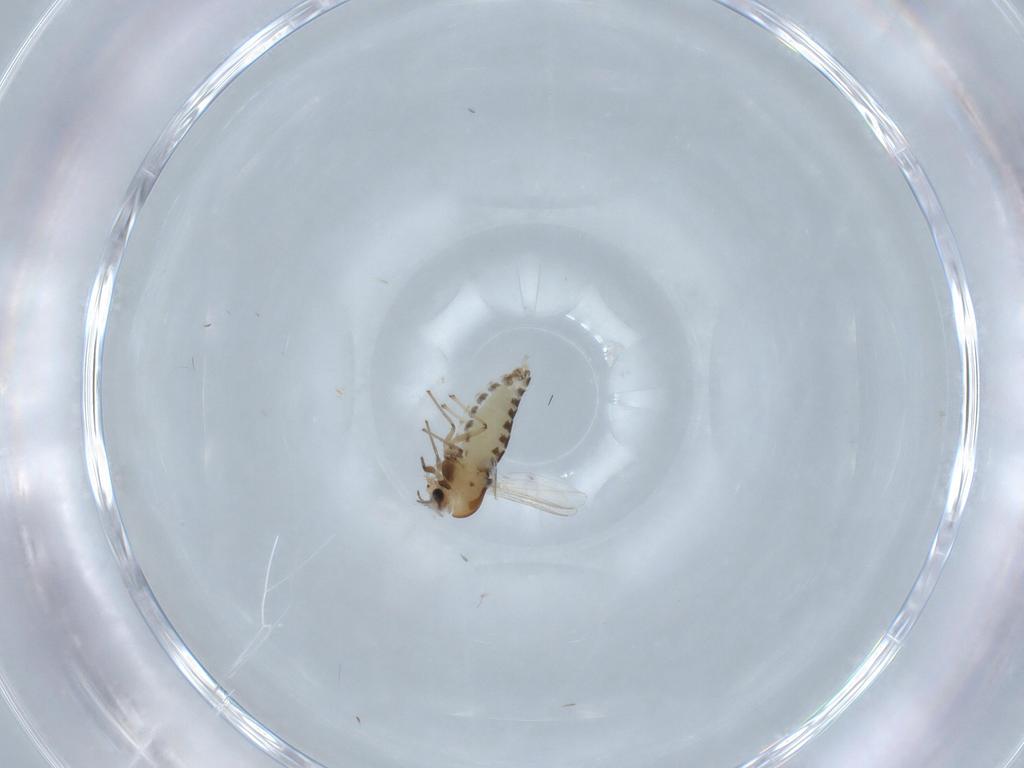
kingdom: Animalia
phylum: Arthropoda
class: Insecta
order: Diptera
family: Chironomidae
